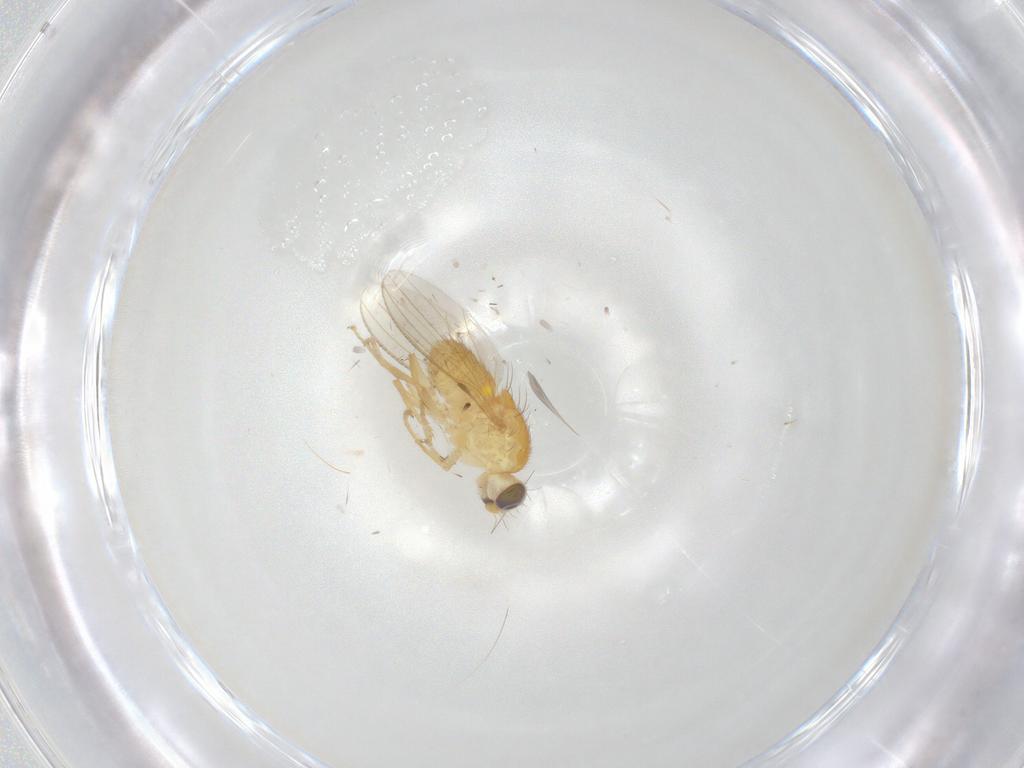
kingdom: Animalia
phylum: Arthropoda
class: Insecta
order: Diptera
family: Chyromyidae
